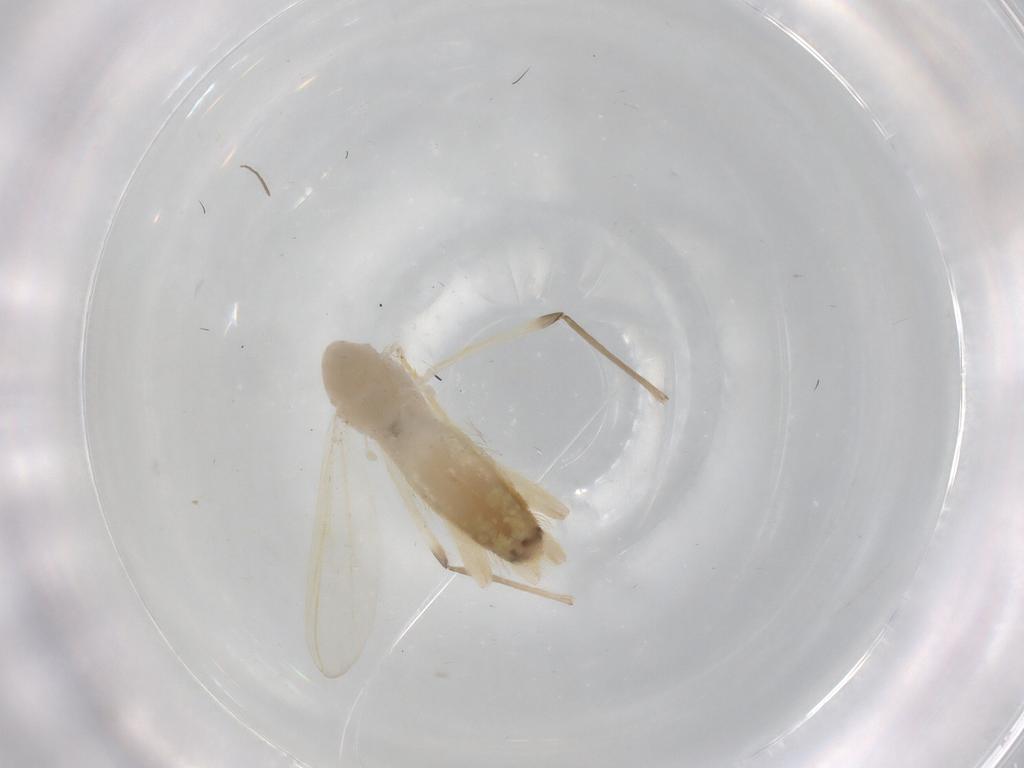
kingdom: Animalia
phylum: Arthropoda
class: Insecta
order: Diptera
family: Chironomidae
